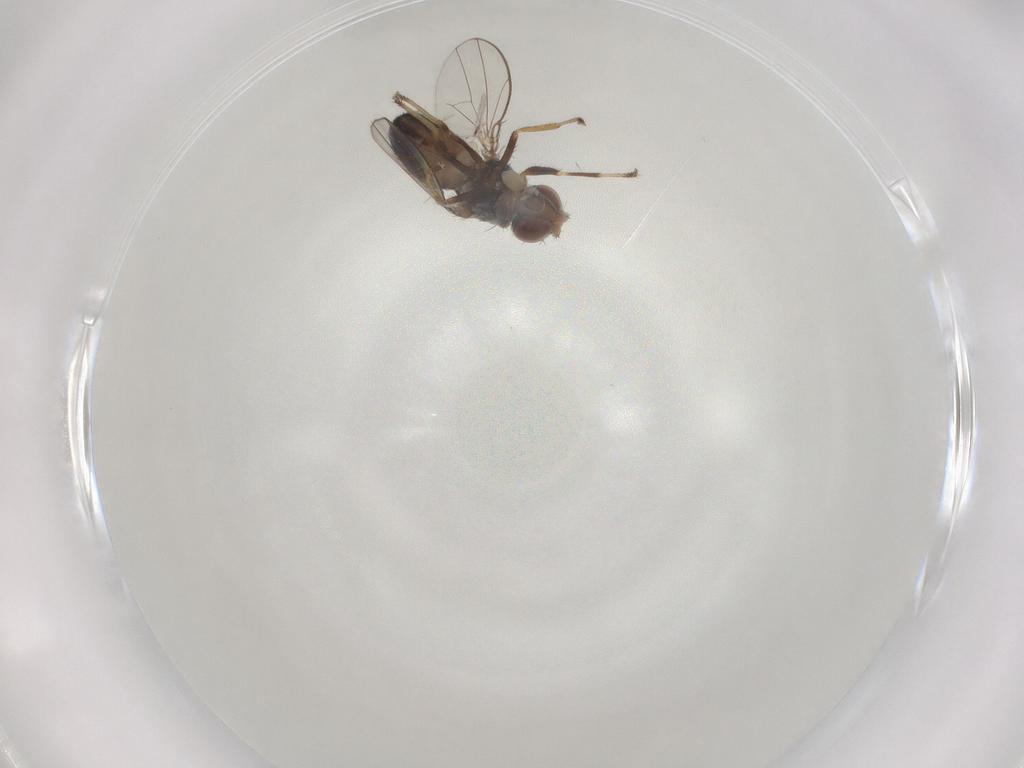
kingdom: Animalia
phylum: Arthropoda
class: Insecta
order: Diptera
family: Ephydridae
